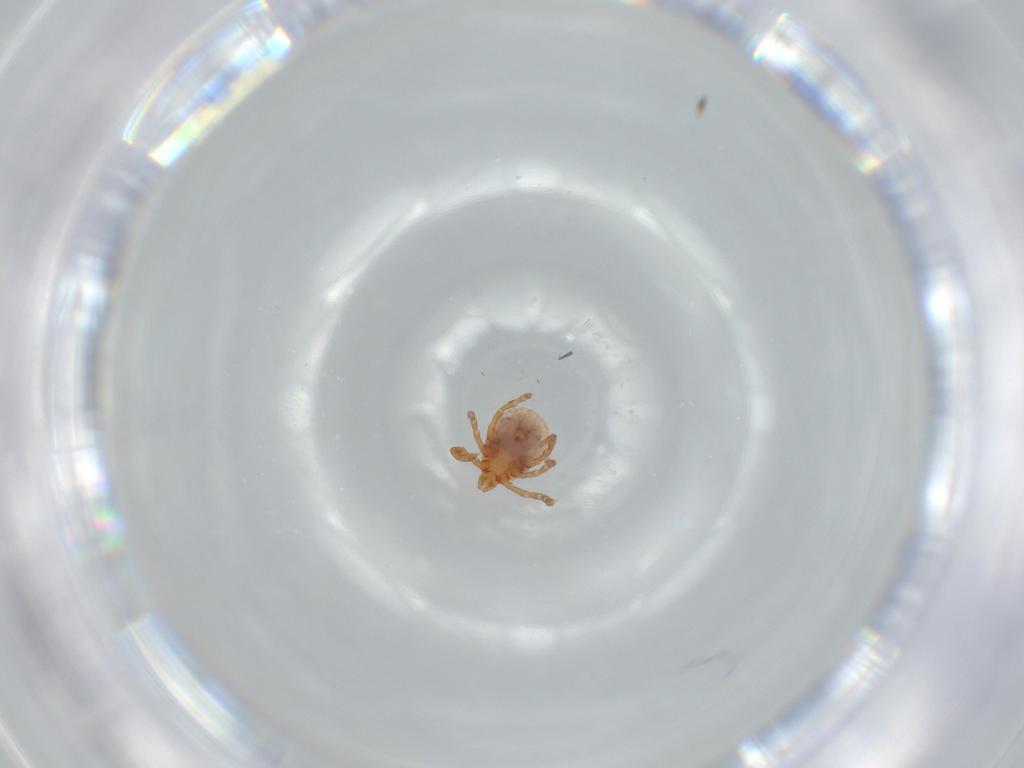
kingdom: Animalia
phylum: Arthropoda
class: Arachnida
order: Ixodida
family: Ixodidae
